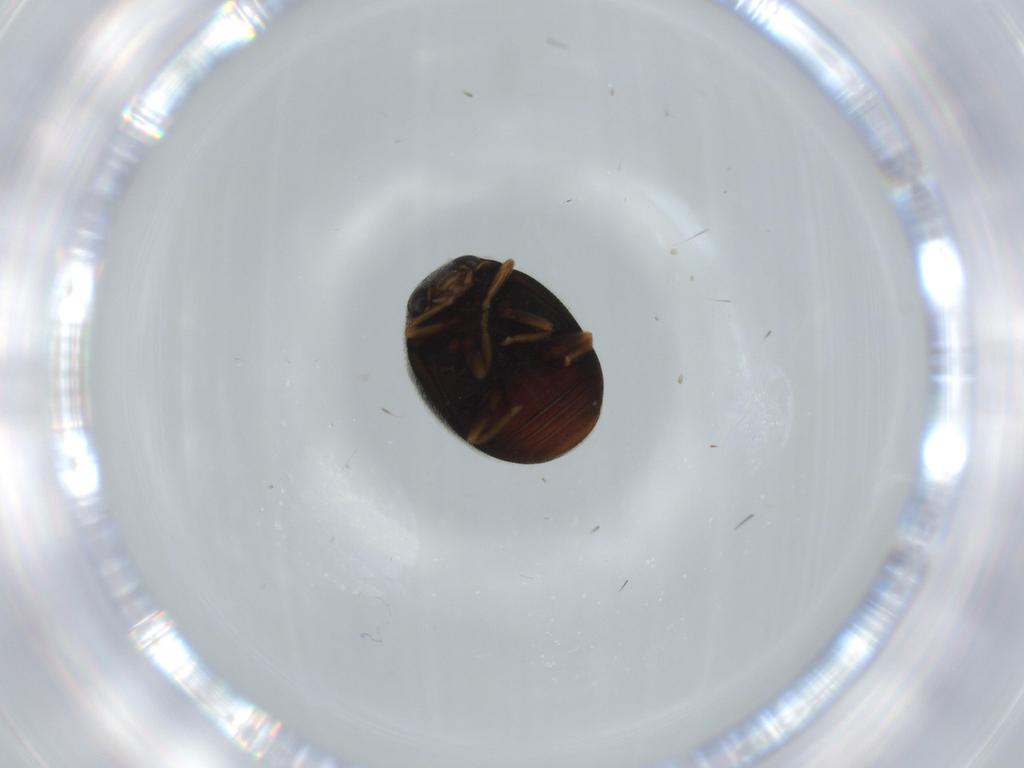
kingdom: Animalia
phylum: Arthropoda
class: Insecta
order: Coleoptera
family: Coccinellidae
